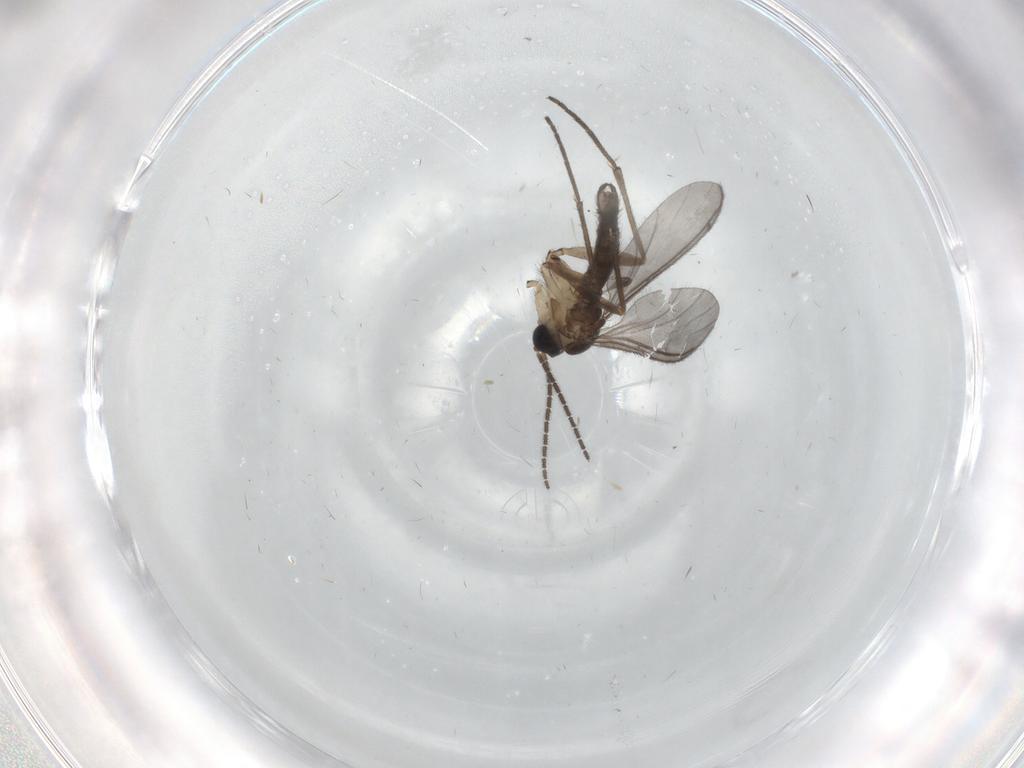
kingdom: Animalia
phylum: Arthropoda
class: Insecta
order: Diptera
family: Sciaridae
